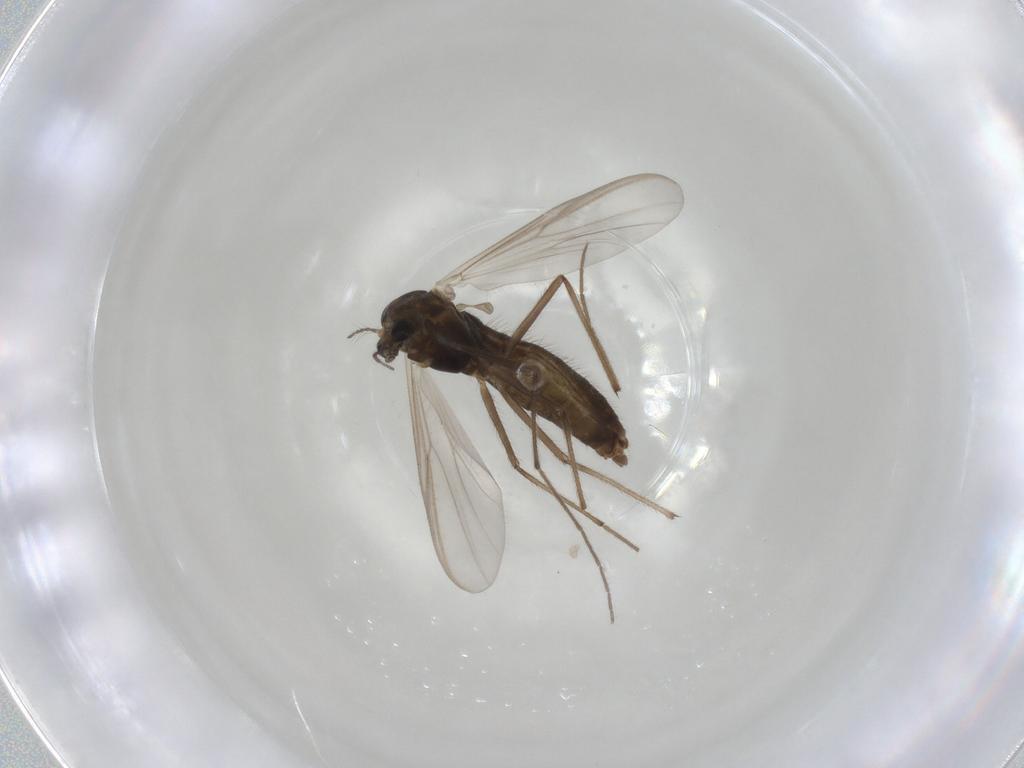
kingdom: Animalia
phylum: Arthropoda
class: Insecta
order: Diptera
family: Chironomidae
